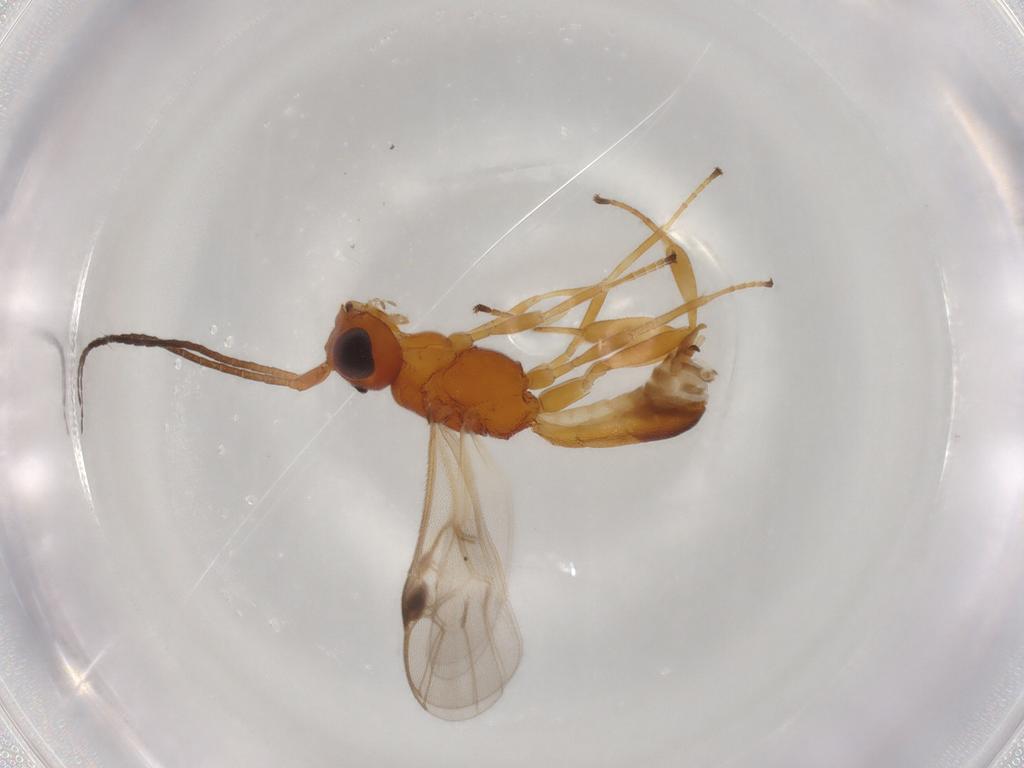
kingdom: Animalia
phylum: Arthropoda
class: Insecta
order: Hymenoptera
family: Braconidae
